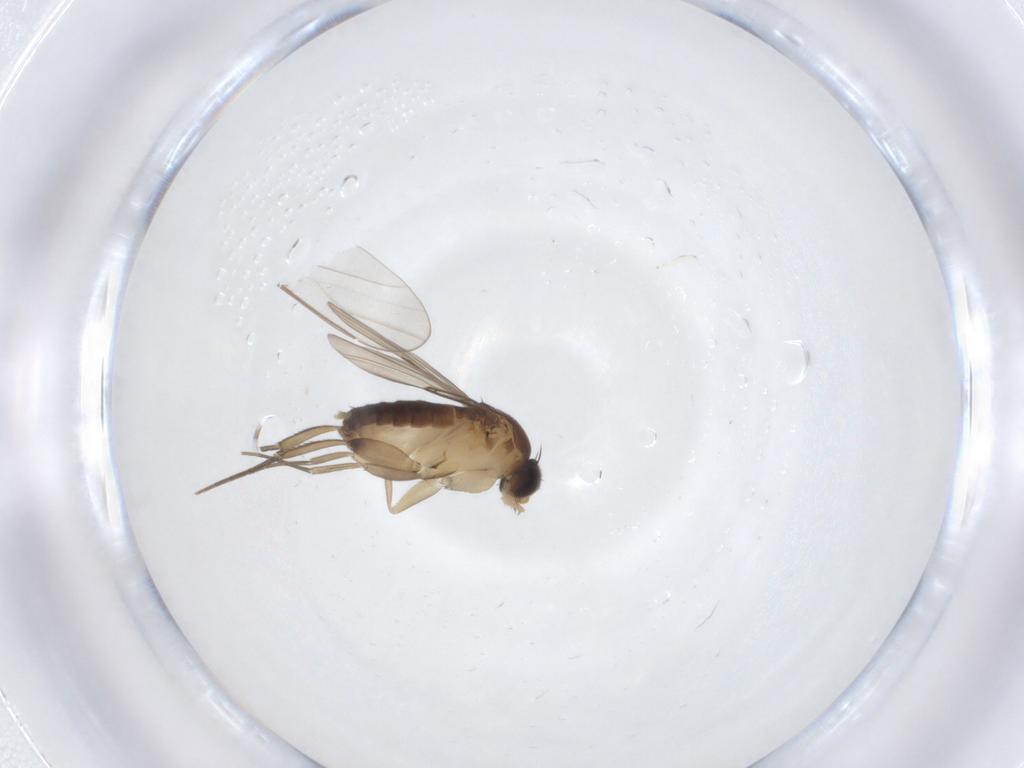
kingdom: Animalia
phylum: Arthropoda
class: Insecta
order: Diptera
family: Phoridae
